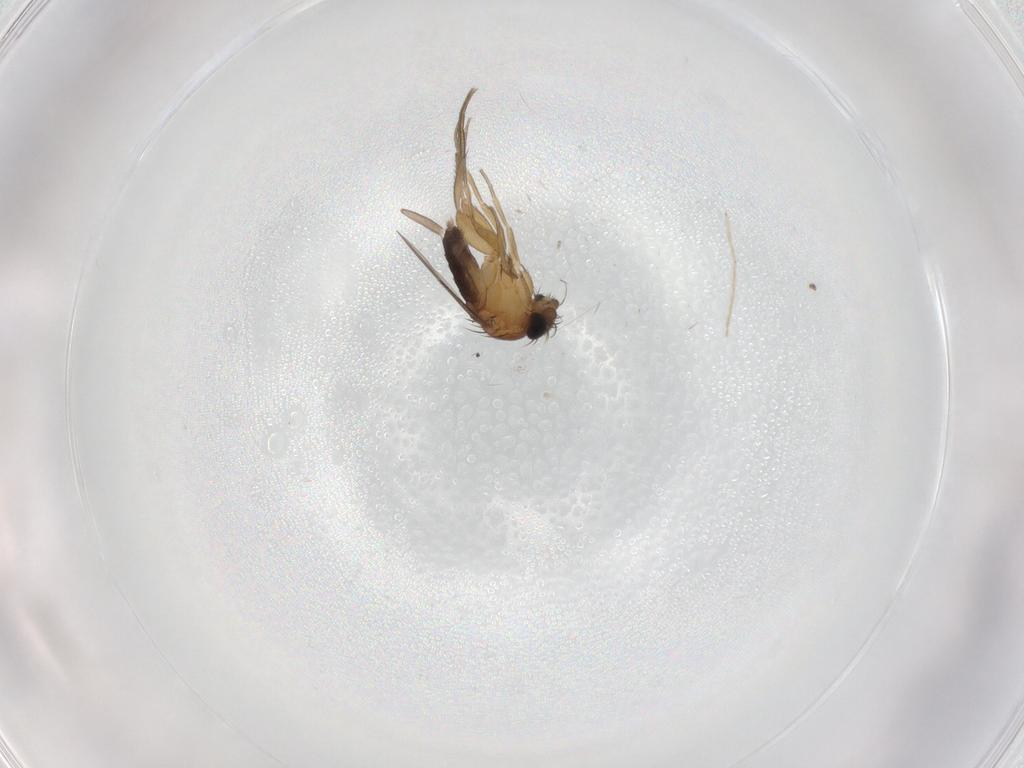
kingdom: Animalia
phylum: Arthropoda
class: Insecta
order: Diptera
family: Phoridae
